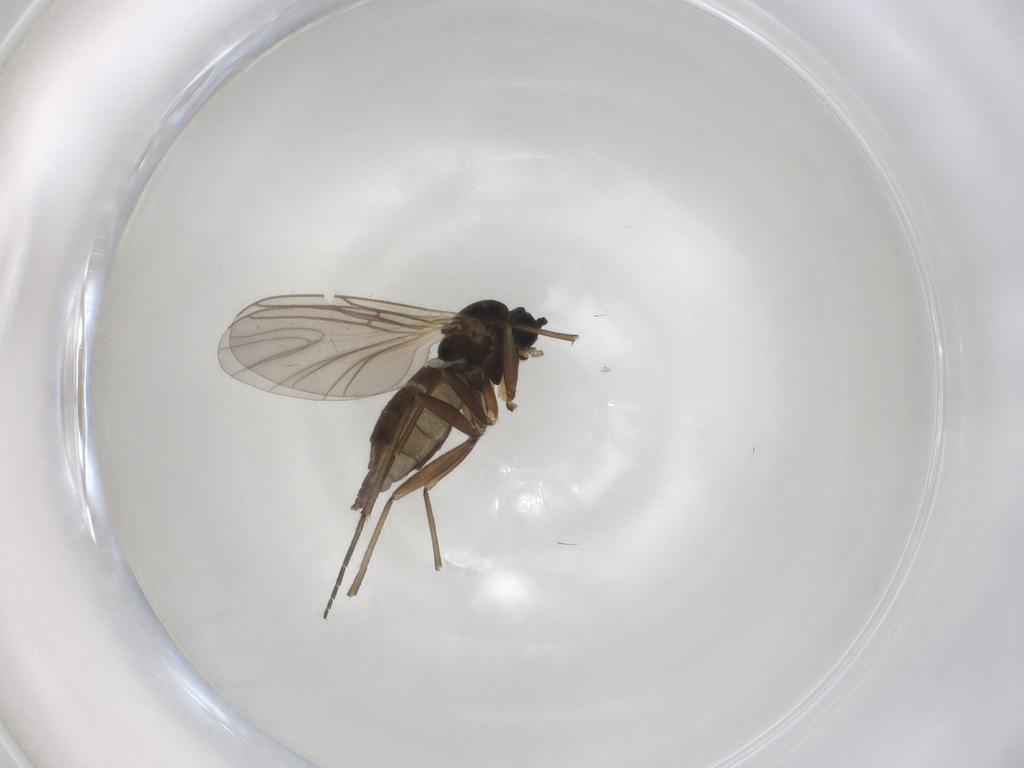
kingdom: Animalia
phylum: Arthropoda
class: Insecta
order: Diptera
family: Sciaridae
